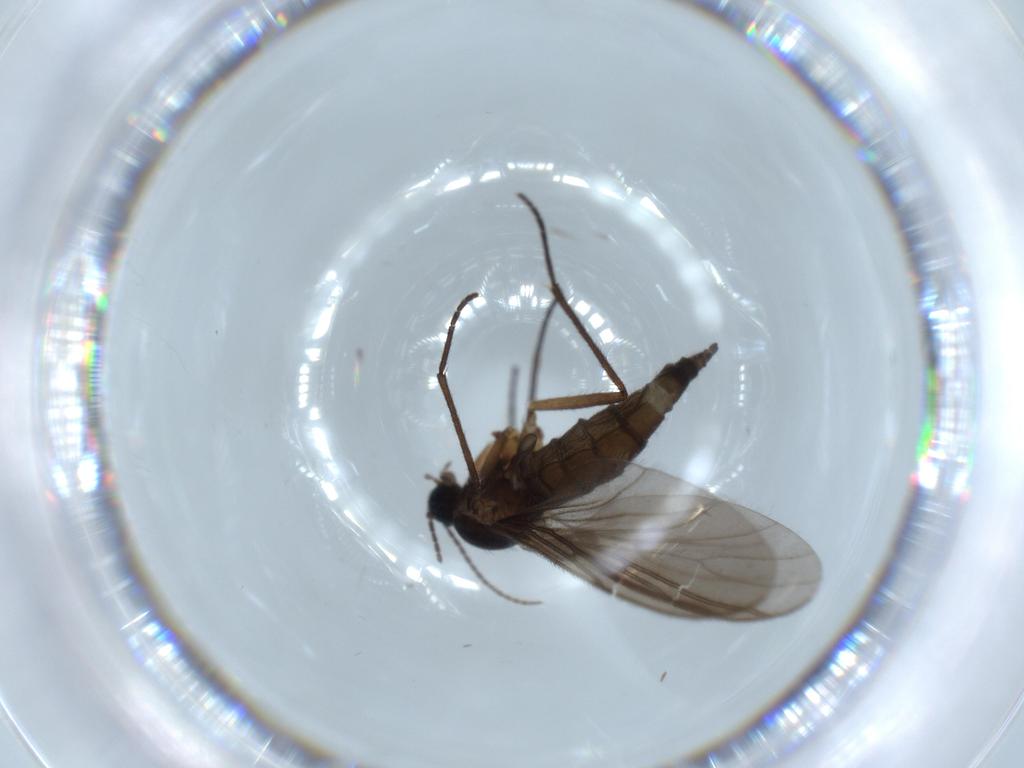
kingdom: Animalia
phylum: Arthropoda
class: Insecta
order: Diptera
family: Sciaridae
